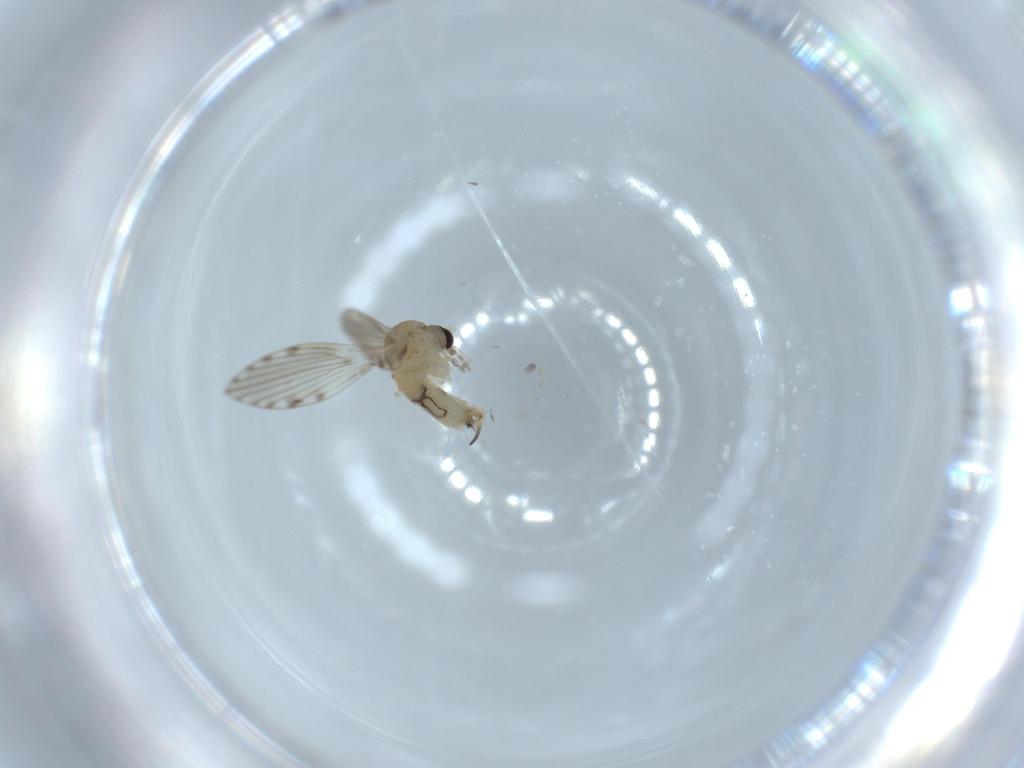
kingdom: Animalia
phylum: Arthropoda
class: Insecta
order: Diptera
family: Psychodidae
